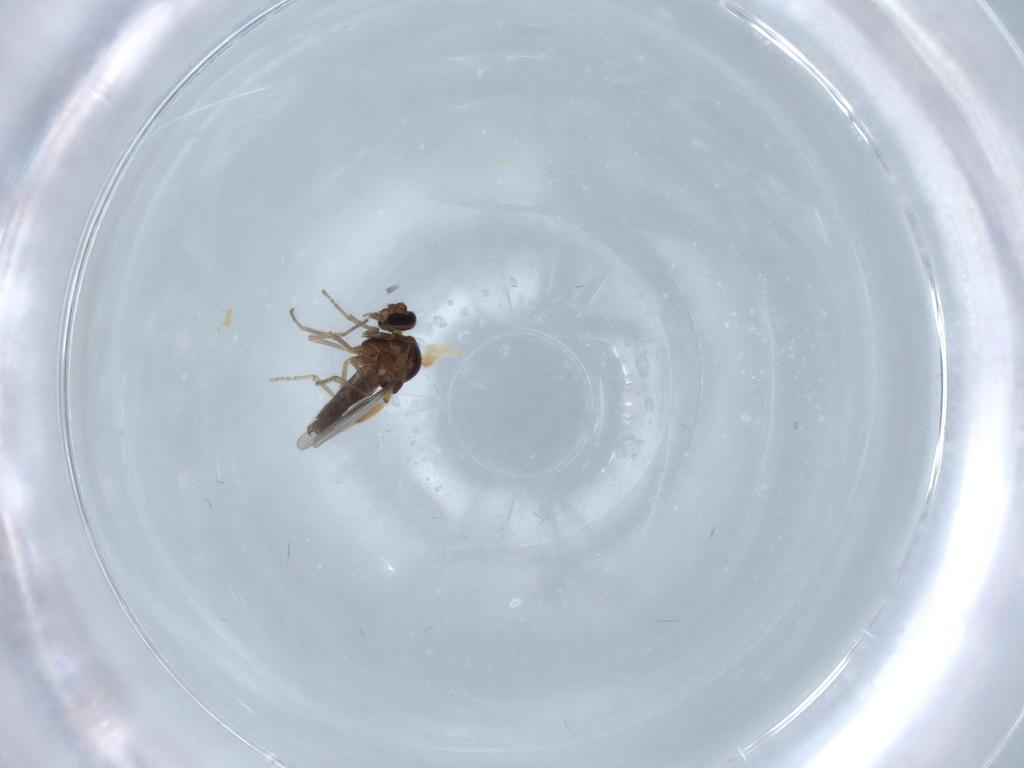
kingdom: Animalia
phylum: Arthropoda
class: Insecta
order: Diptera
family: Ceratopogonidae
